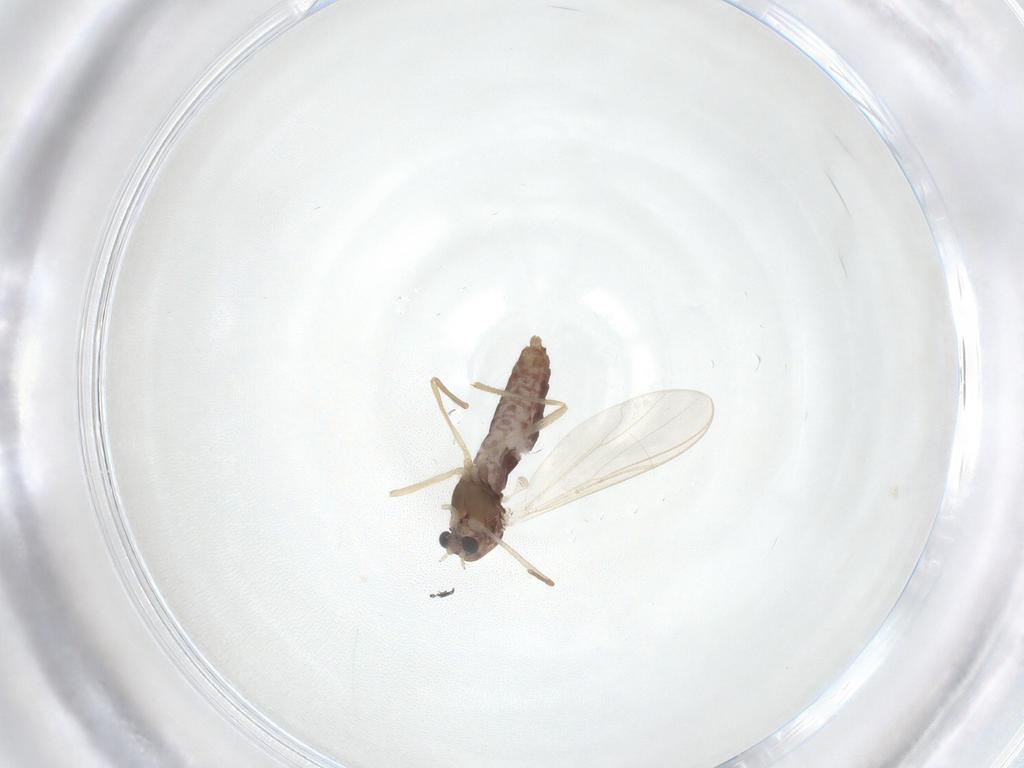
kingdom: Animalia
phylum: Arthropoda
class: Insecta
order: Diptera
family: Chironomidae
